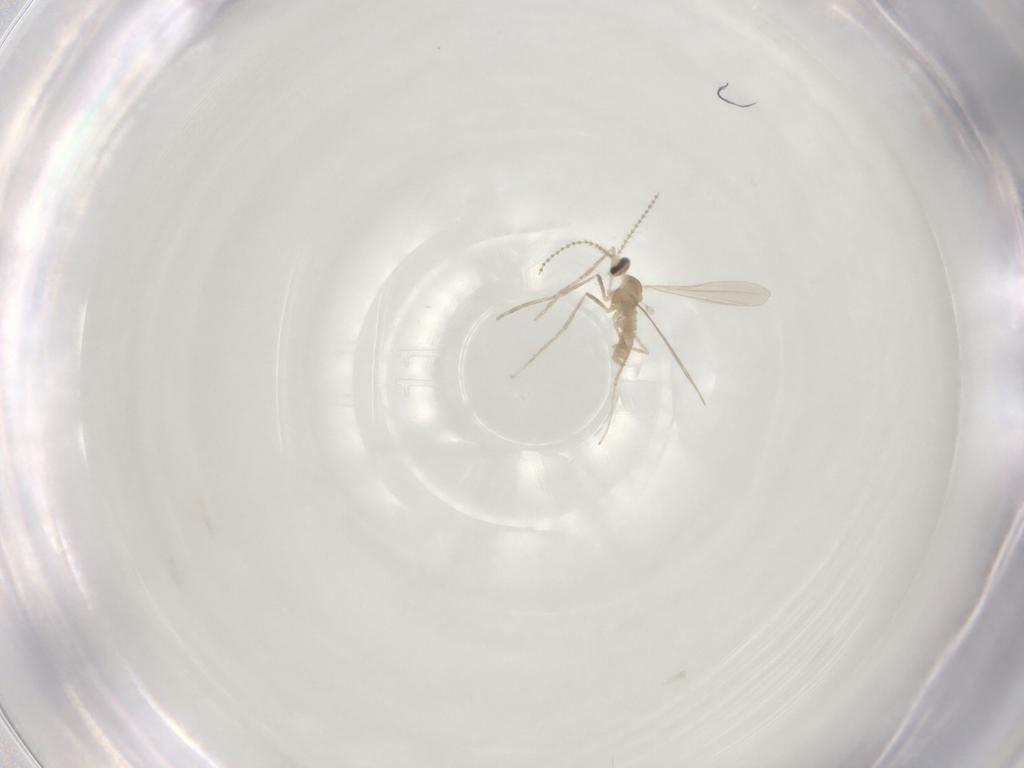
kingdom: Animalia
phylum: Arthropoda
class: Insecta
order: Diptera
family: Cecidomyiidae
